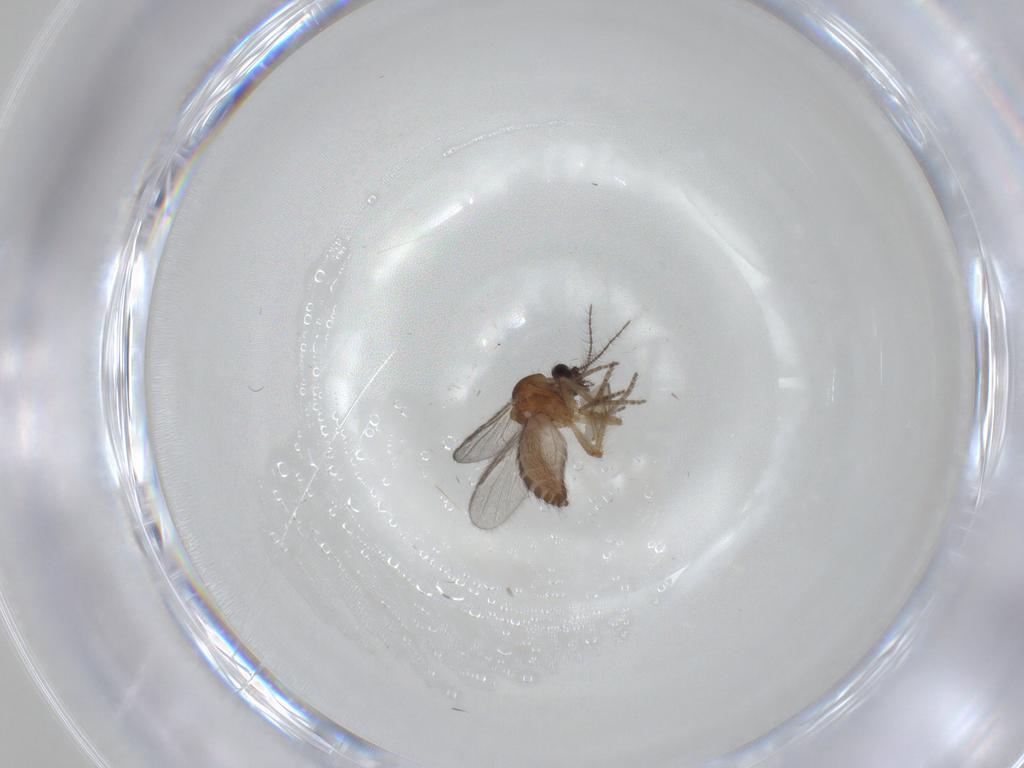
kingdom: Animalia
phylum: Arthropoda
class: Insecta
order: Diptera
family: Ceratopogonidae
